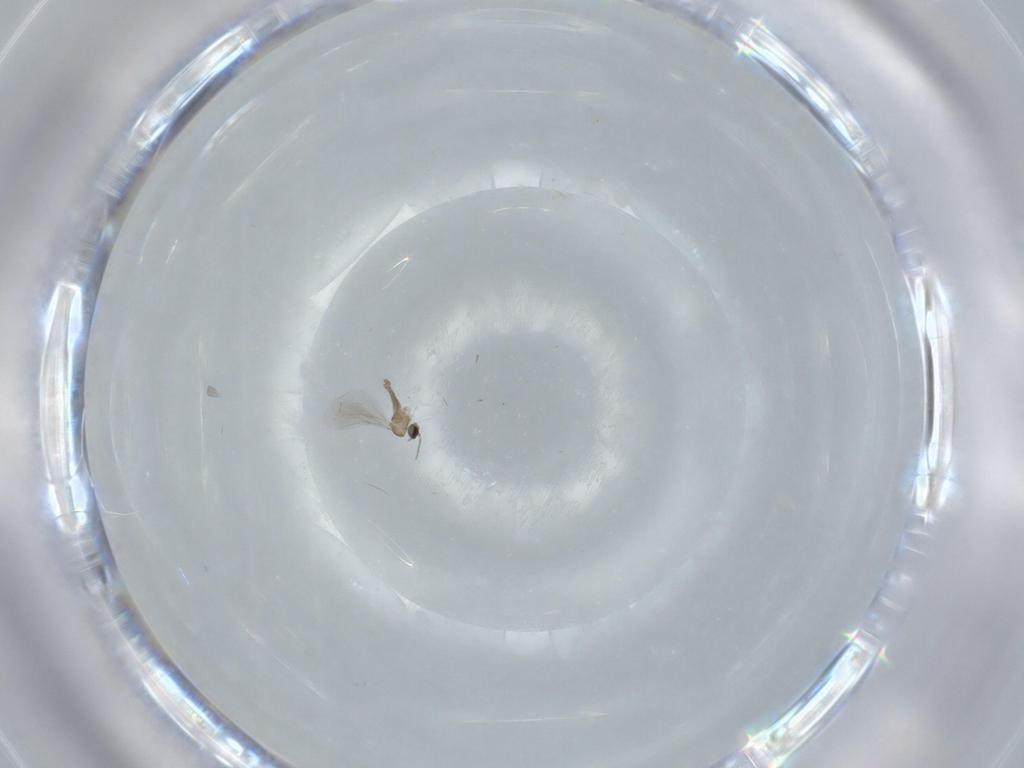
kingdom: Animalia
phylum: Arthropoda
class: Insecta
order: Diptera
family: Cecidomyiidae
